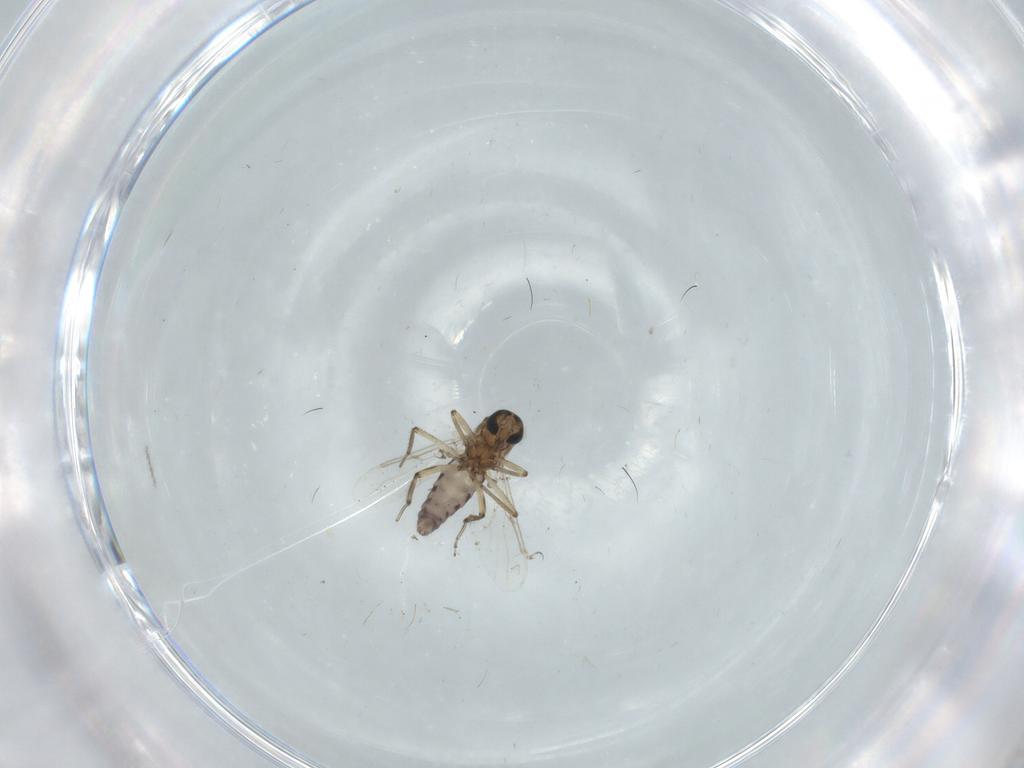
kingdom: Animalia
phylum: Arthropoda
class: Insecta
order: Diptera
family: Ceratopogonidae
